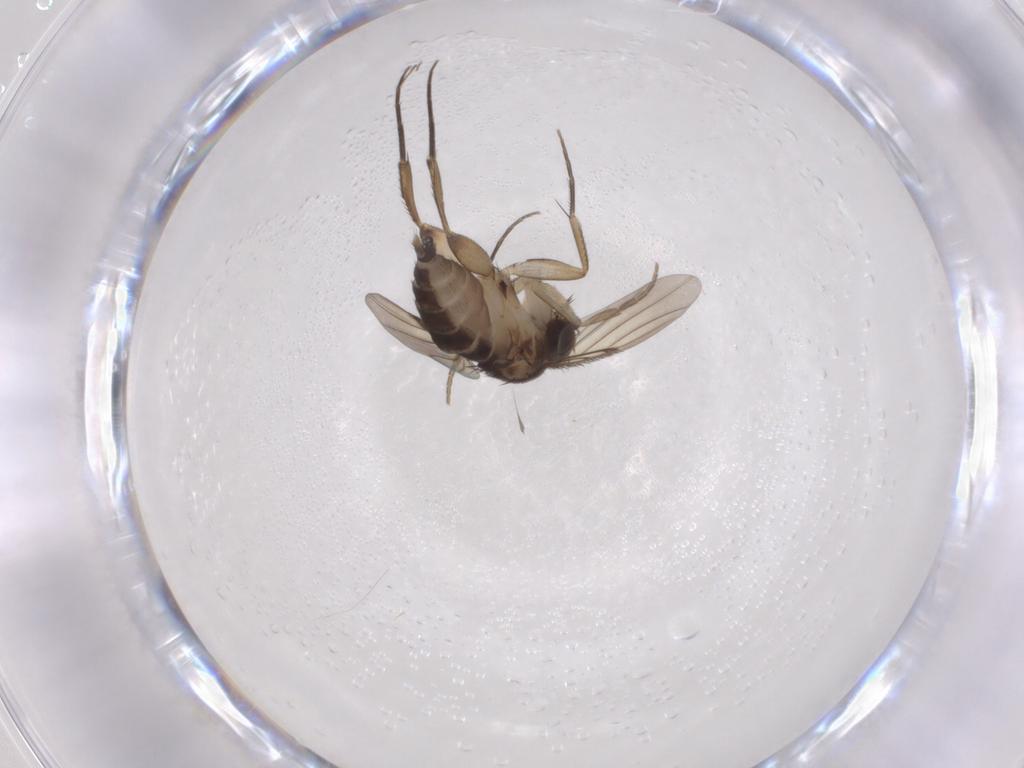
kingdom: Animalia
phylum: Arthropoda
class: Insecta
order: Diptera
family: Phoridae
